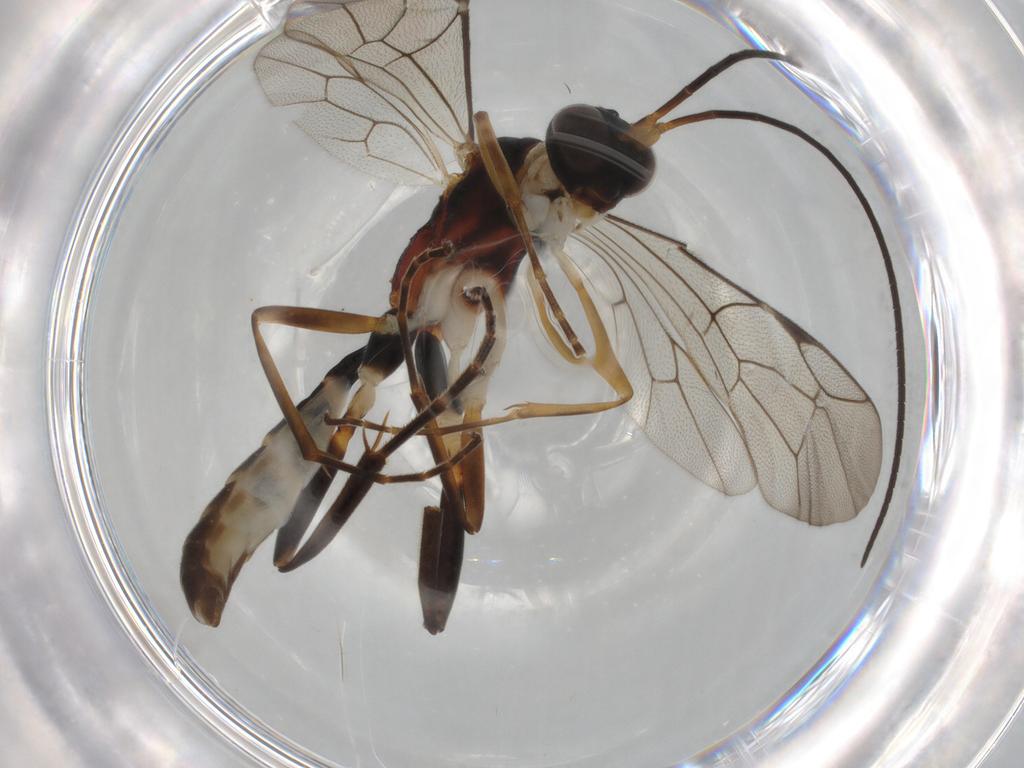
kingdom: Animalia
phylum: Arthropoda
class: Insecta
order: Hymenoptera
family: Ichneumonidae
